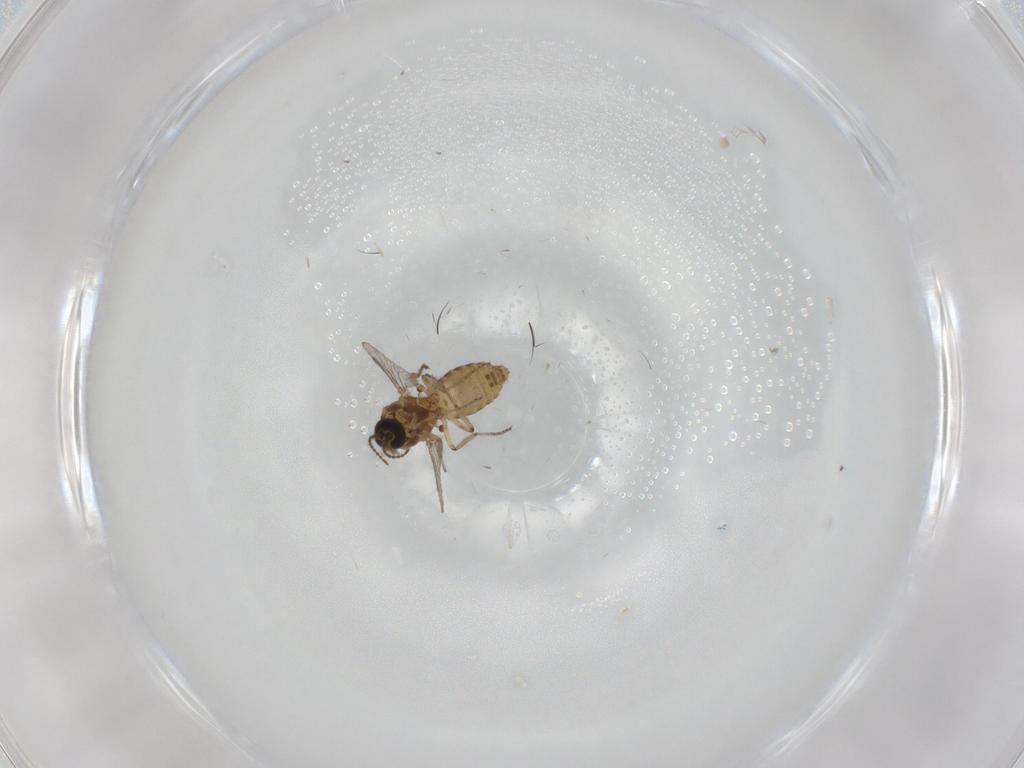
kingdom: Animalia
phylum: Arthropoda
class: Insecta
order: Diptera
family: Ceratopogonidae
